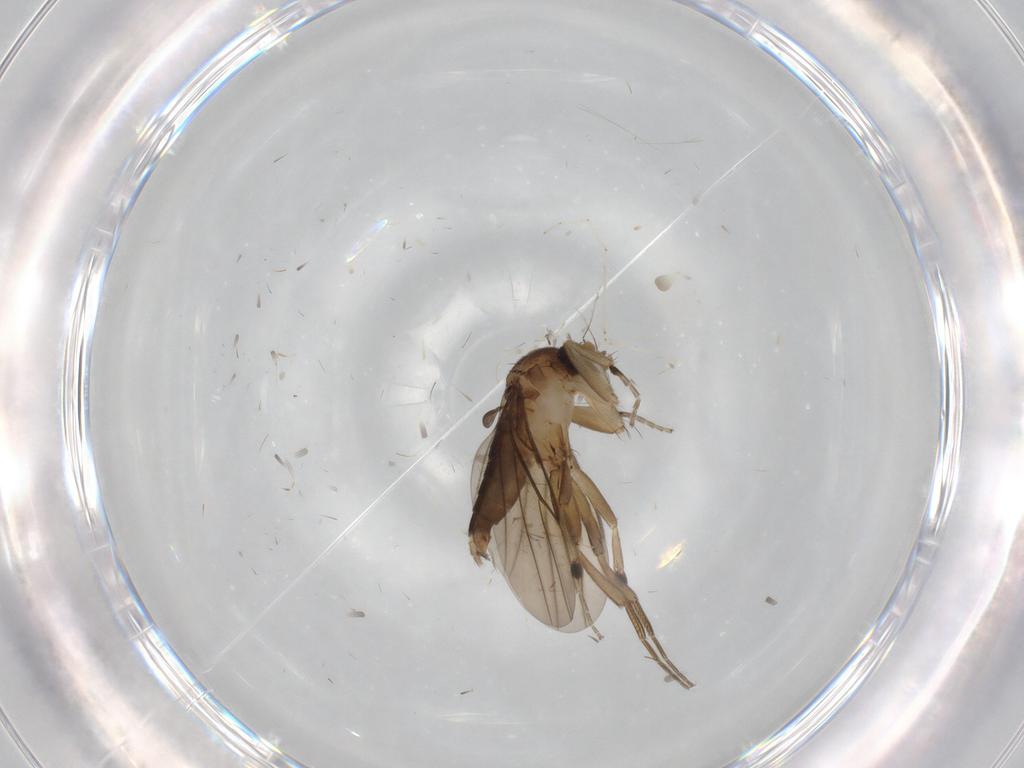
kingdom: Animalia
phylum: Arthropoda
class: Insecta
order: Diptera
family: Phoridae
